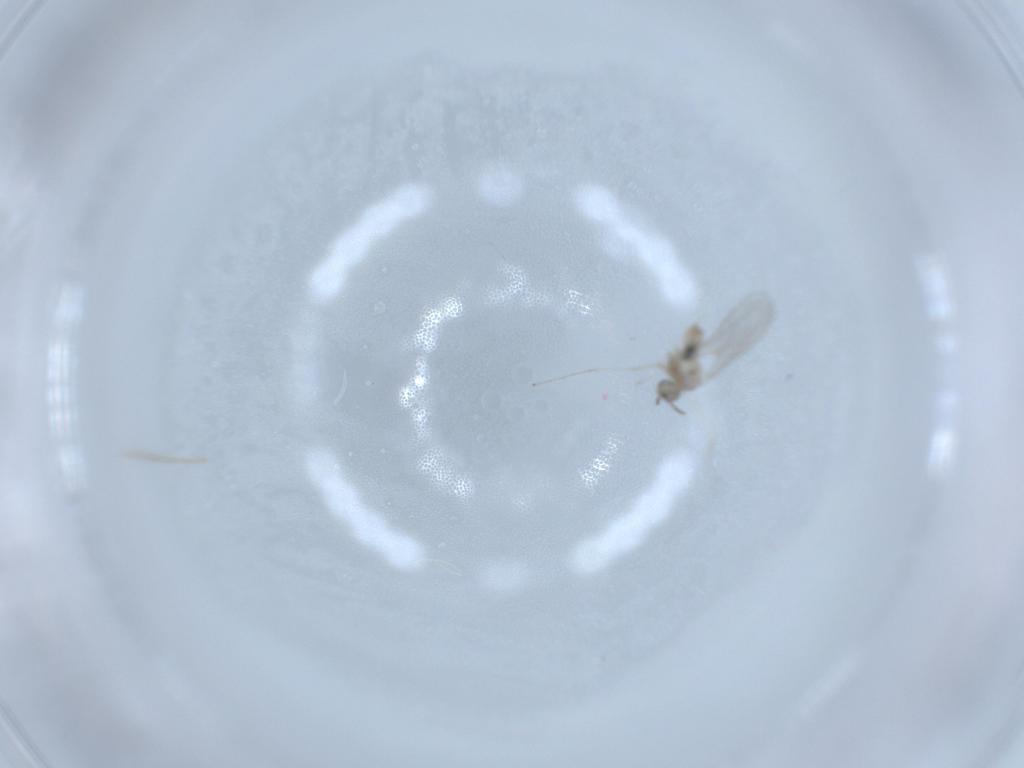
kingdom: Animalia
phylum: Arthropoda
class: Insecta
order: Diptera
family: Cecidomyiidae
